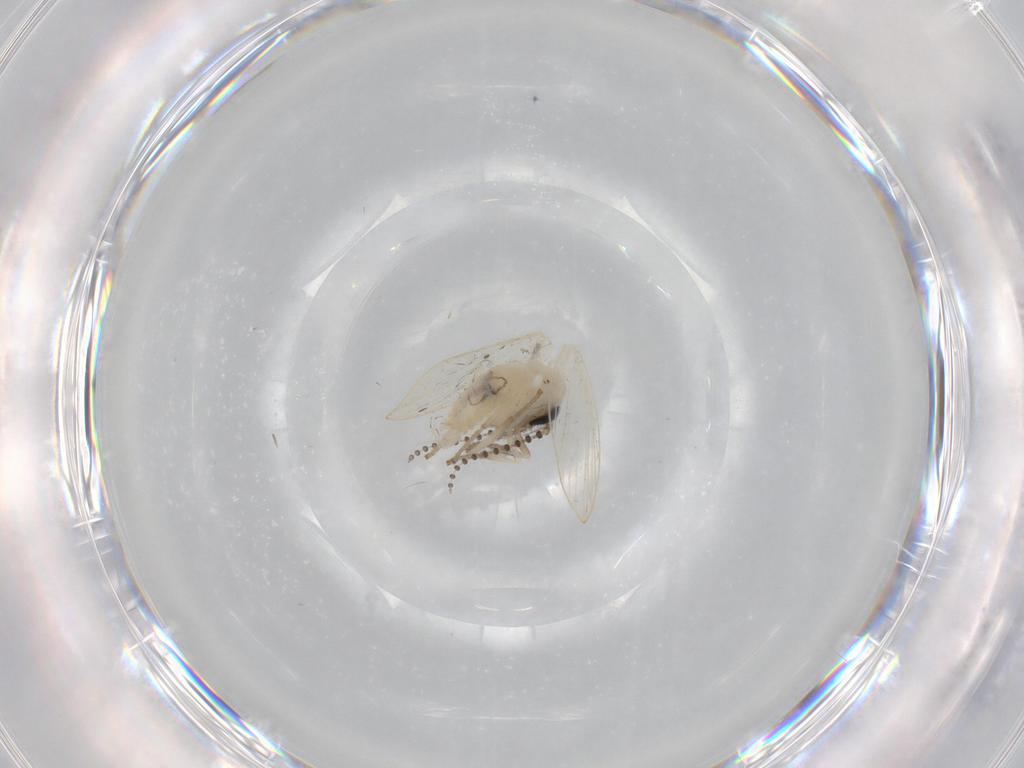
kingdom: Animalia
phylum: Arthropoda
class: Insecta
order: Diptera
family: Psychodidae
